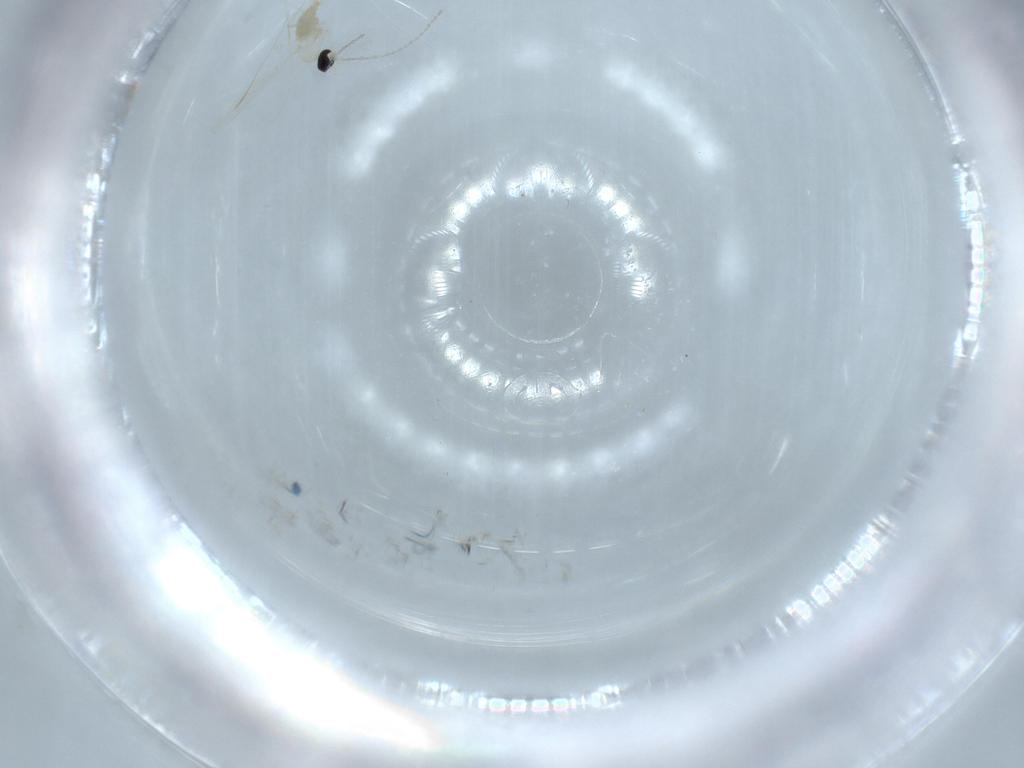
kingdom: Animalia
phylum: Arthropoda
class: Insecta
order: Diptera
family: Cecidomyiidae
